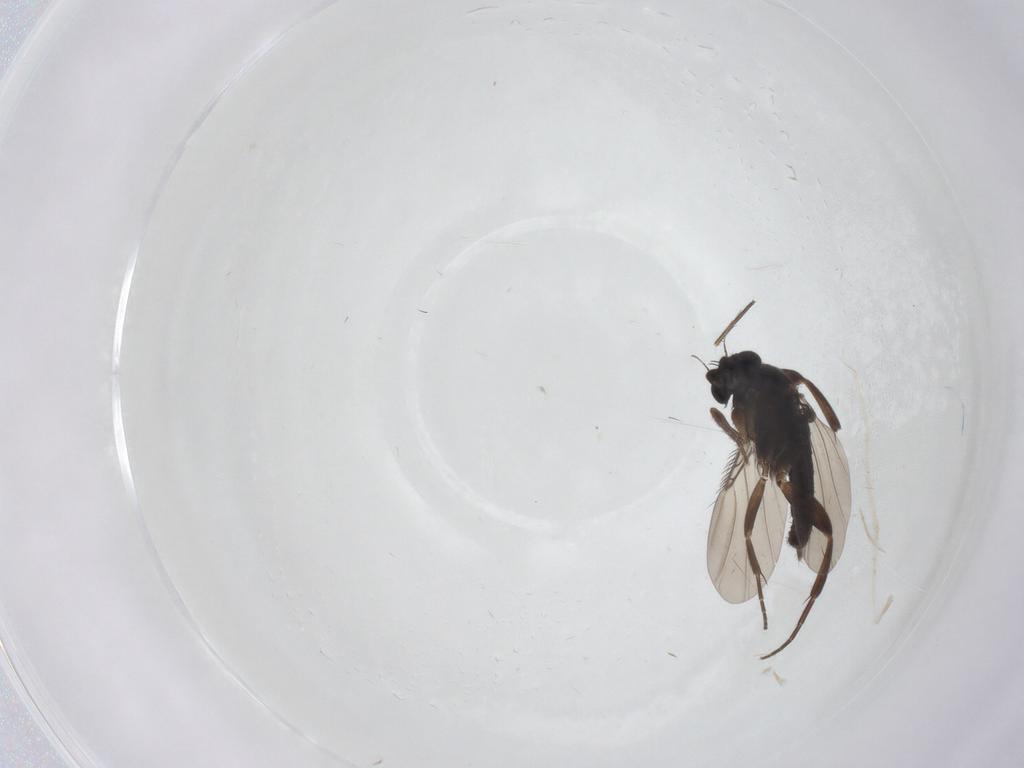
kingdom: Animalia
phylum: Arthropoda
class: Insecta
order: Diptera
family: Phoridae
